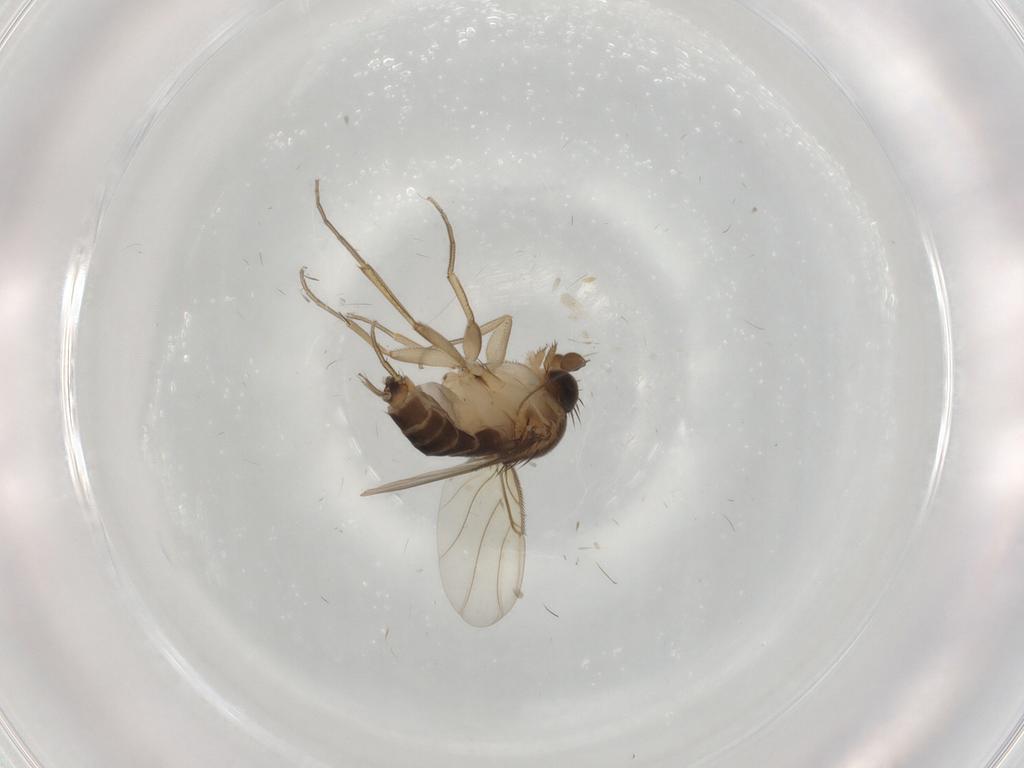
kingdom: Animalia
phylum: Arthropoda
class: Insecta
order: Diptera
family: Phoridae
